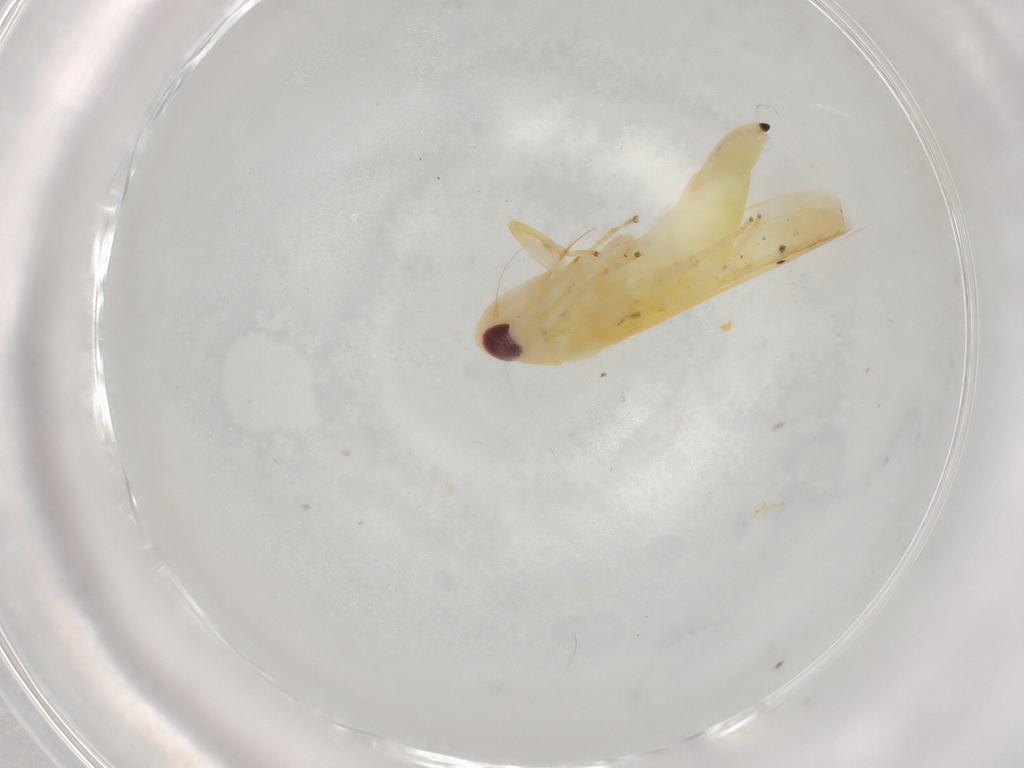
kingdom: Animalia
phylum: Arthropoda
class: Insecta
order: Hemiptera
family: Cicadellidae
